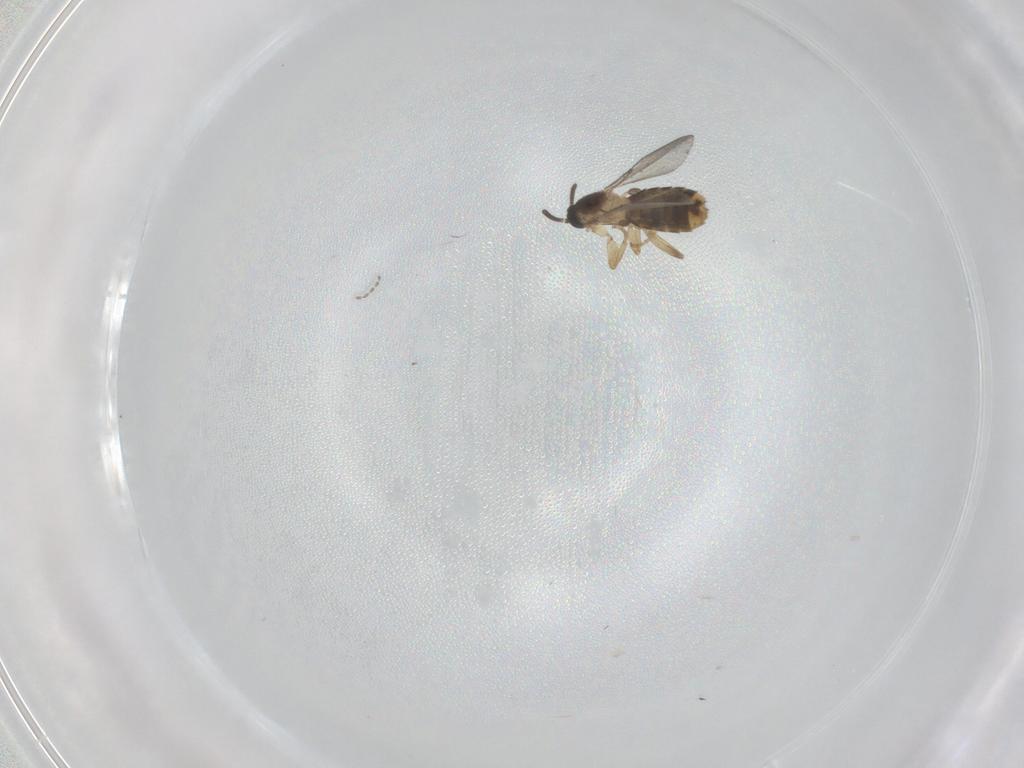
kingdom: Animalia
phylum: Arthropoda
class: Insecta
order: Diptera
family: Scatopsidae
